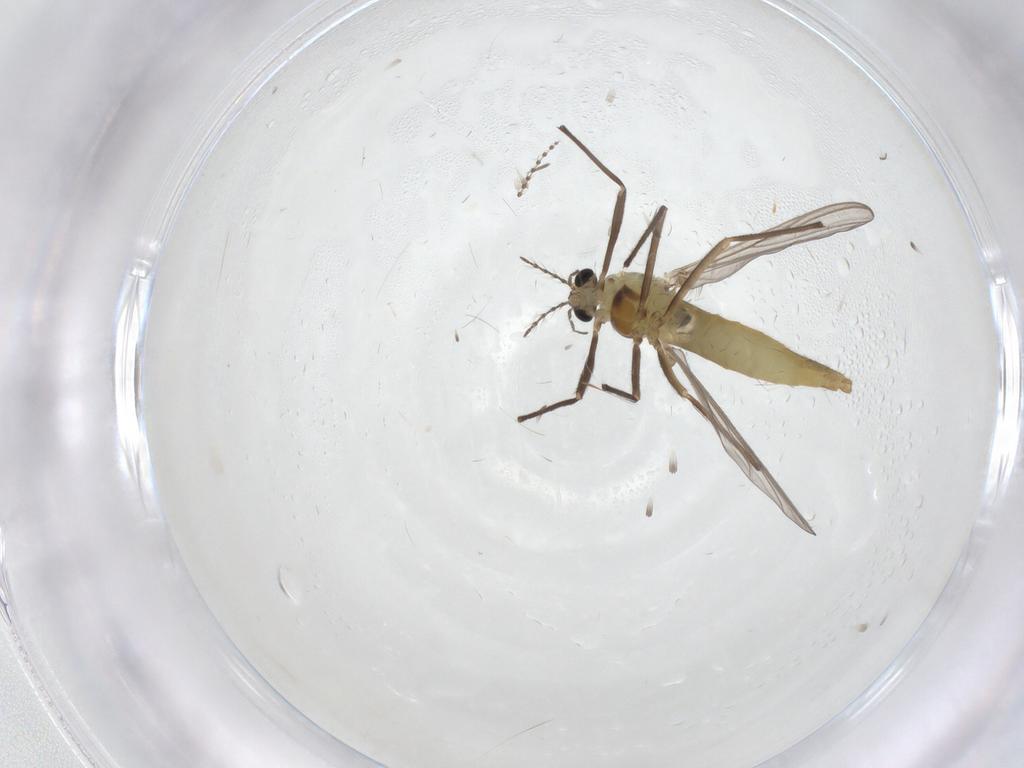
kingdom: Animalia
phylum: Arthropoda
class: Insecta
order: Diptera
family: Chironomidae
